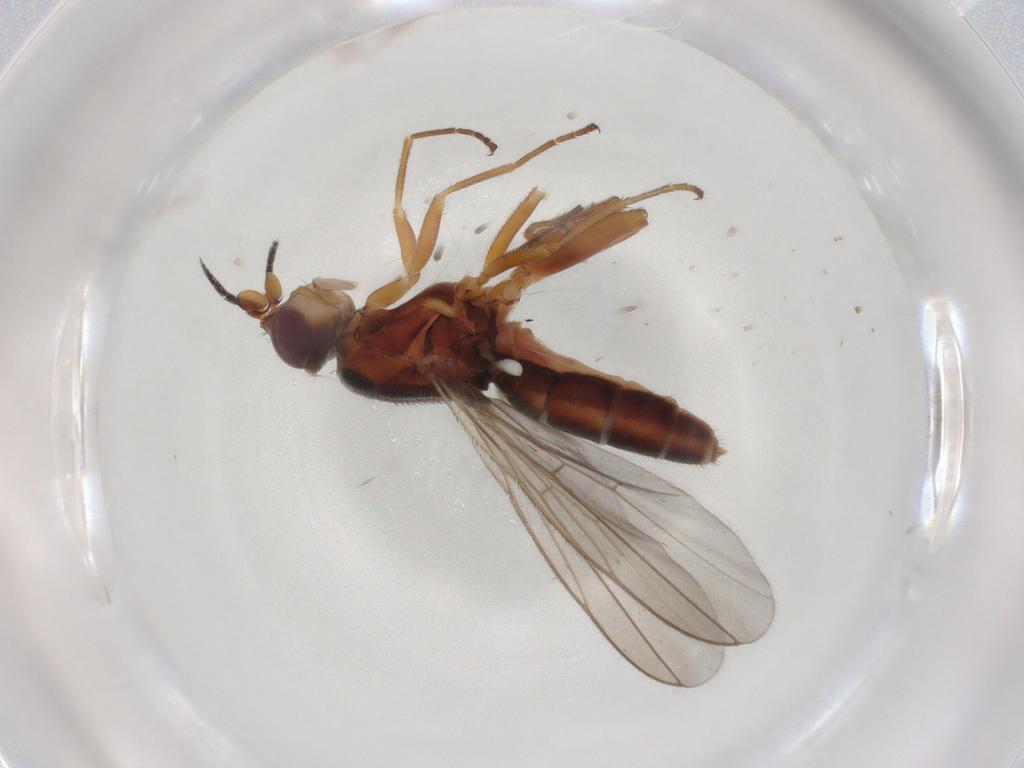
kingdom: Animalia
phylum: Arthropoda
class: Insecta
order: Diptera
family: Chloropidae
